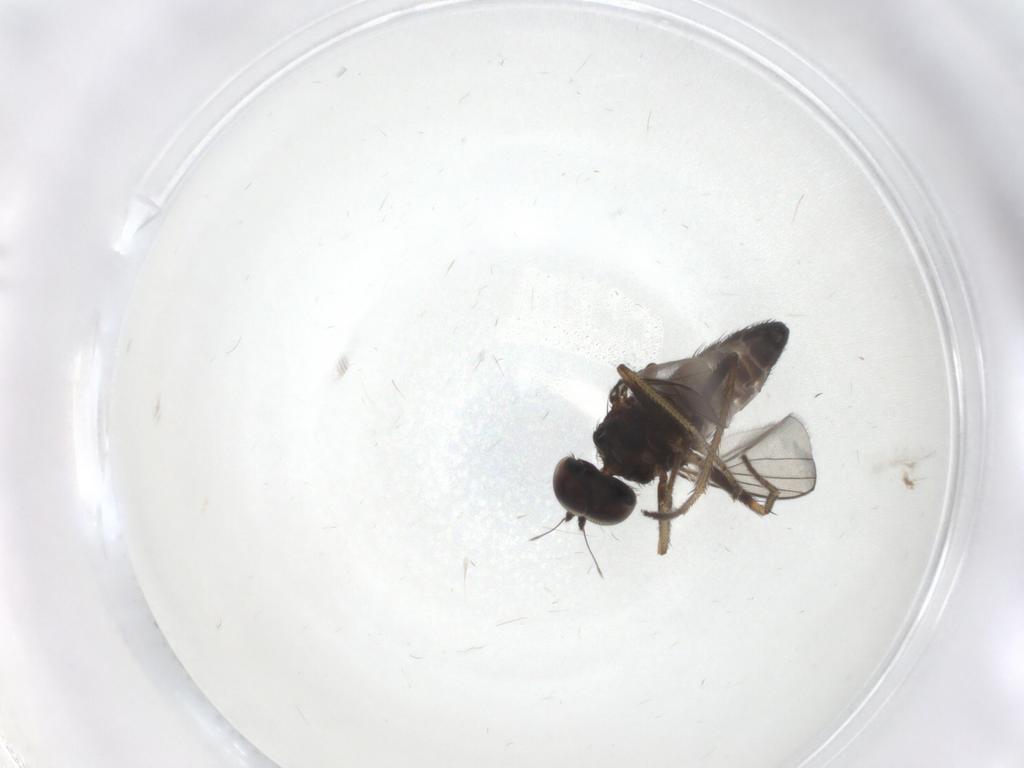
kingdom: Animalia
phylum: Arthropoda
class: Insecta
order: Diptera
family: Dolichopodidae
